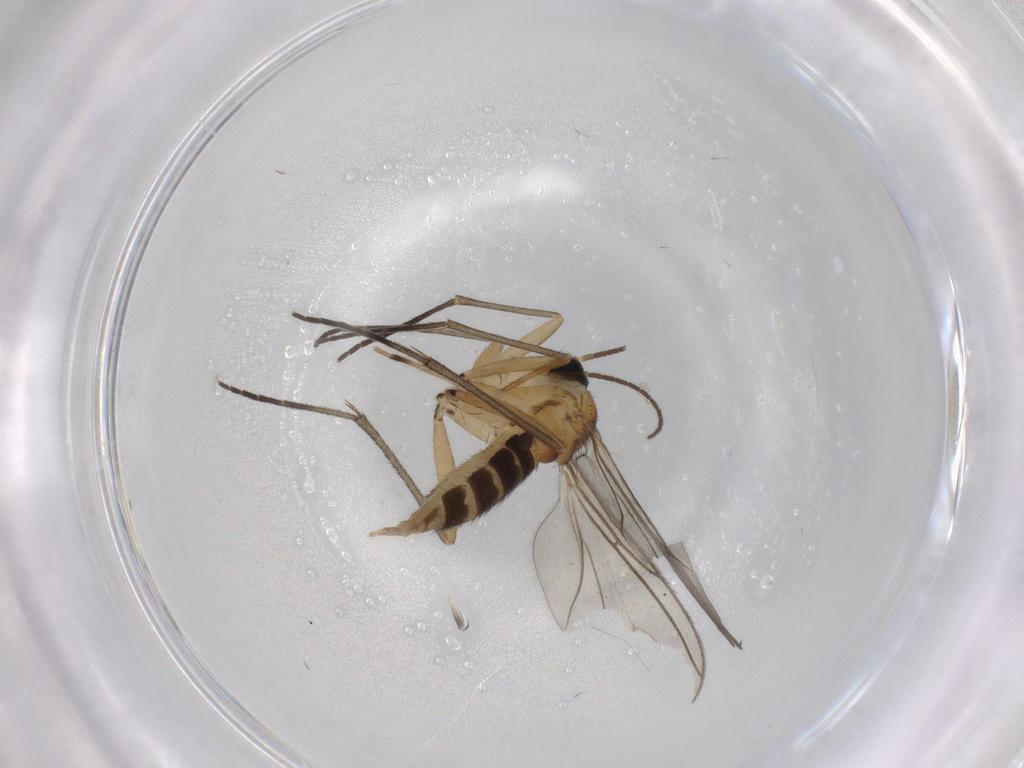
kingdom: Animalia
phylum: Arthropoda
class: Insecta
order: Diptera
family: Sciaridae
